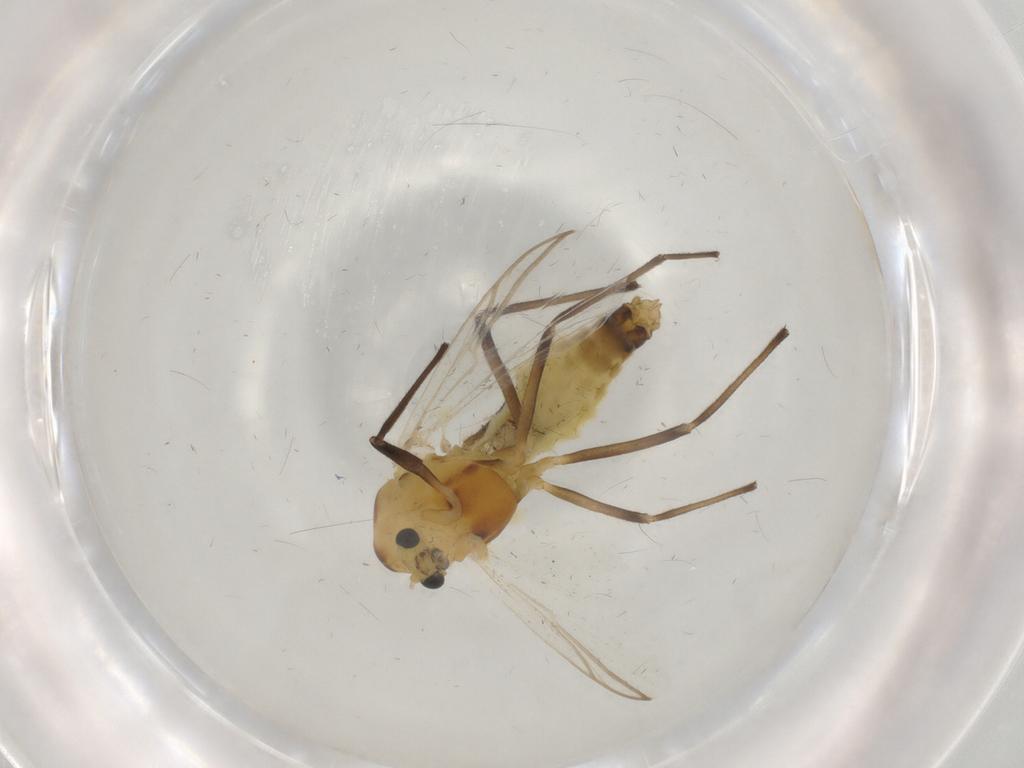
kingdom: Animalia
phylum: Arthropoda
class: Insecta
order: Diptera
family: Chironomidae
